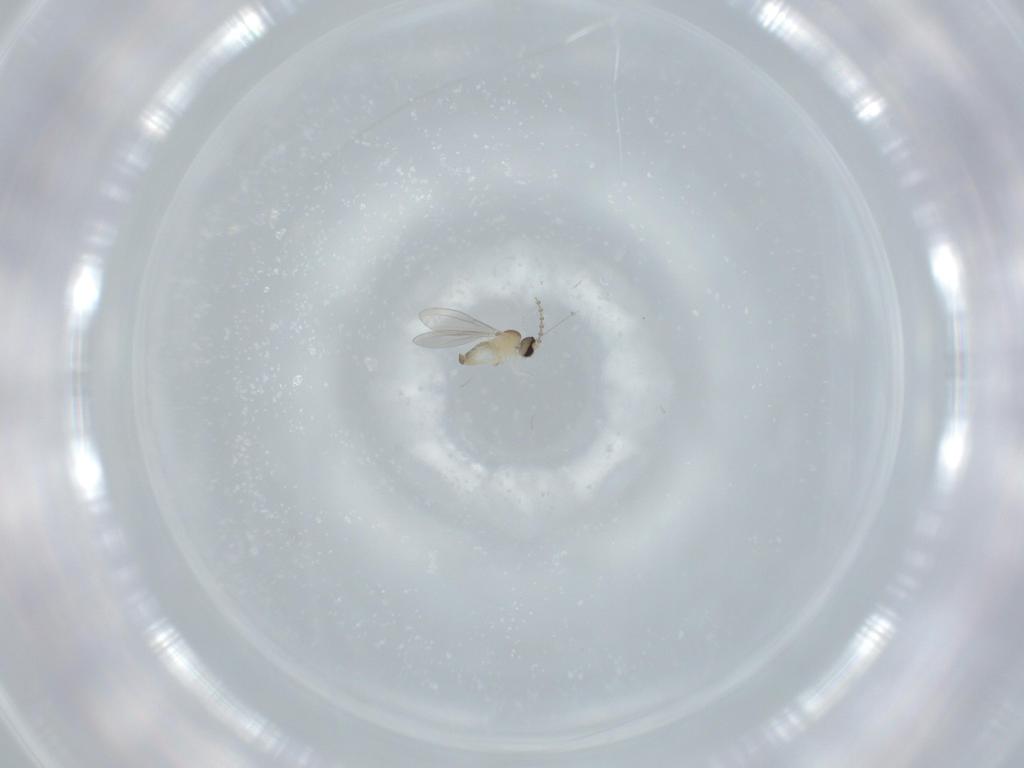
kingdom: Animalia
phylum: Arthropoda
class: Insecta
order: Diptera
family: Cecidomyiidae
